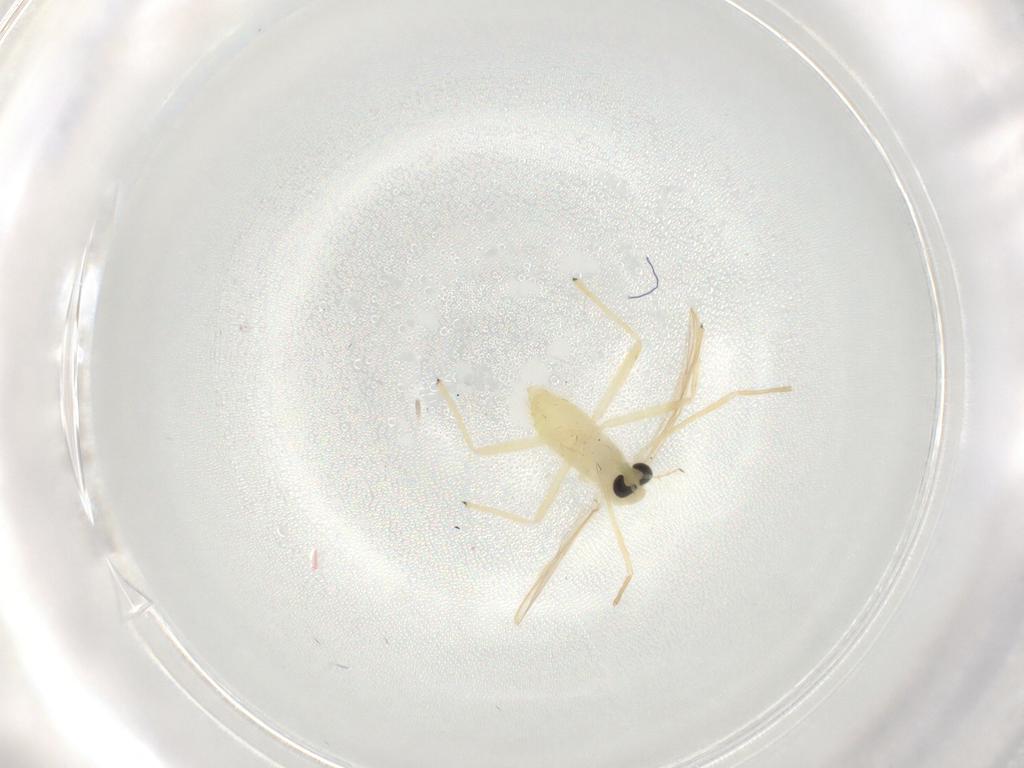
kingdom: Animalia
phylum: Arthropoda
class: Insecta
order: Diptera
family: Chironomidae
